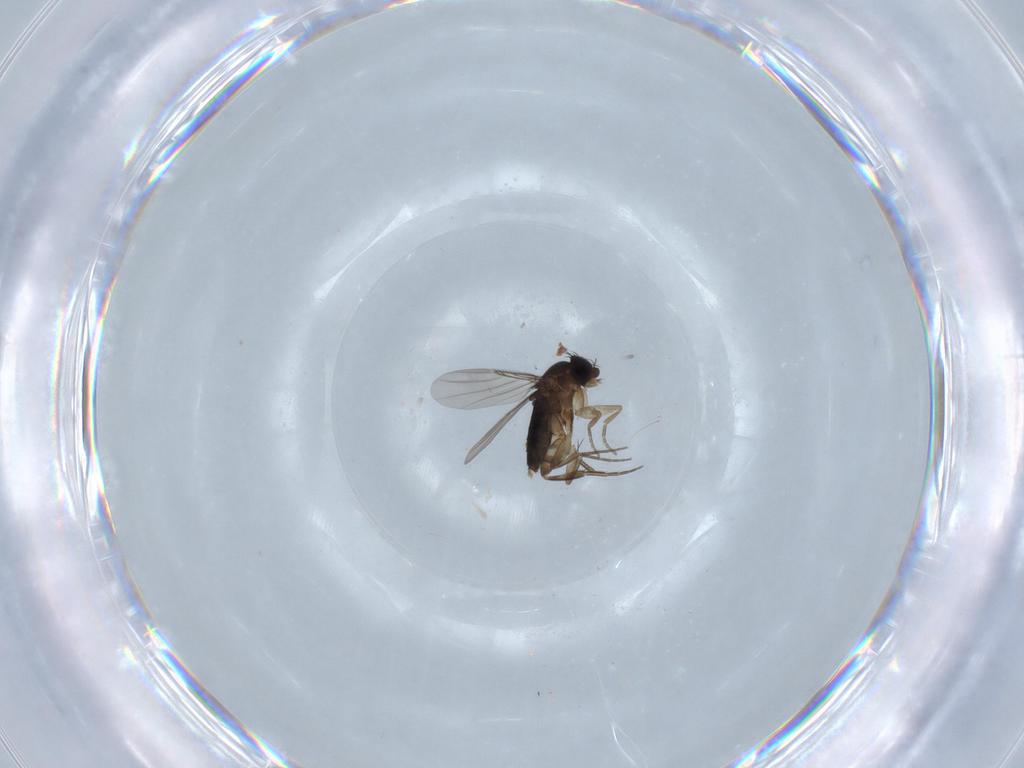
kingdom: Animalia
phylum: Arthropoda
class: Insecta
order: Diptera
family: Phoridae
